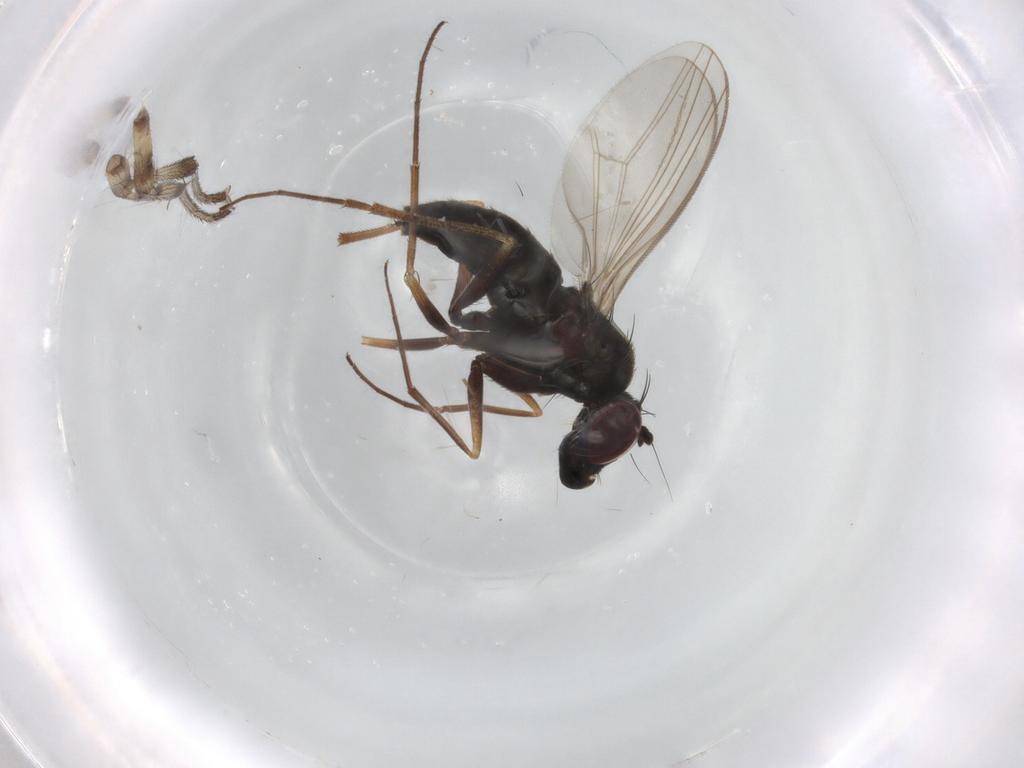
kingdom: Animalia
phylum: Arthropoda
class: Insecta
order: Diptera
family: Dolichopodidae
